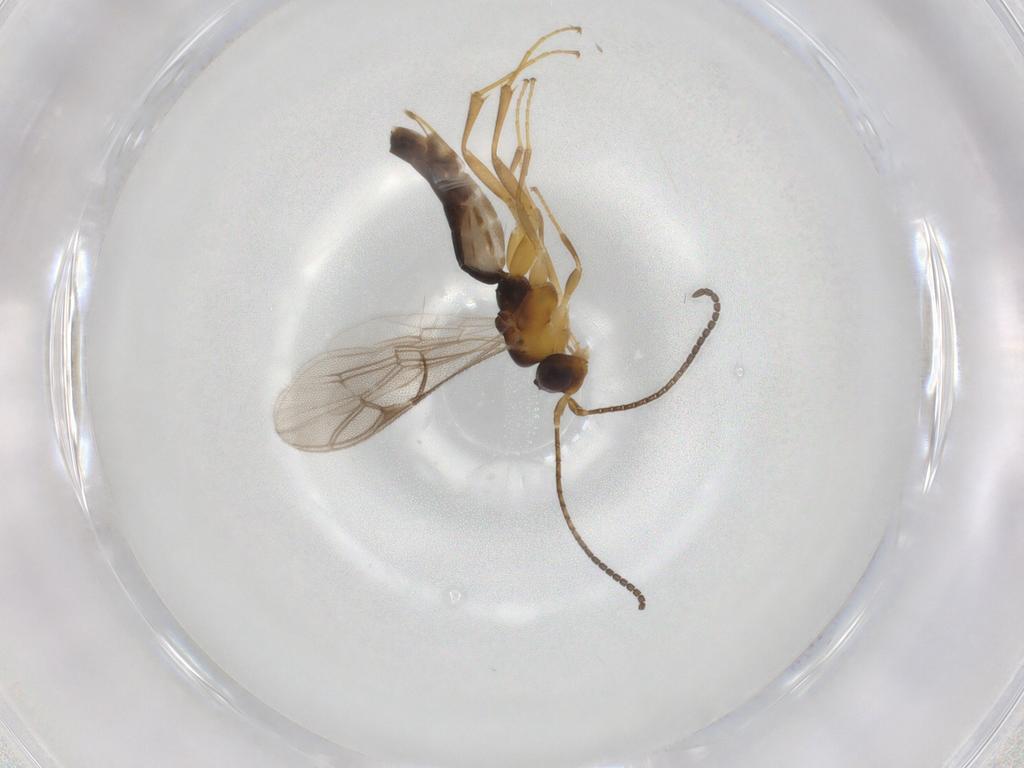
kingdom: Animalia
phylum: Arthropoda
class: Insecta
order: Hymenoptera
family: Ichneumonidae
